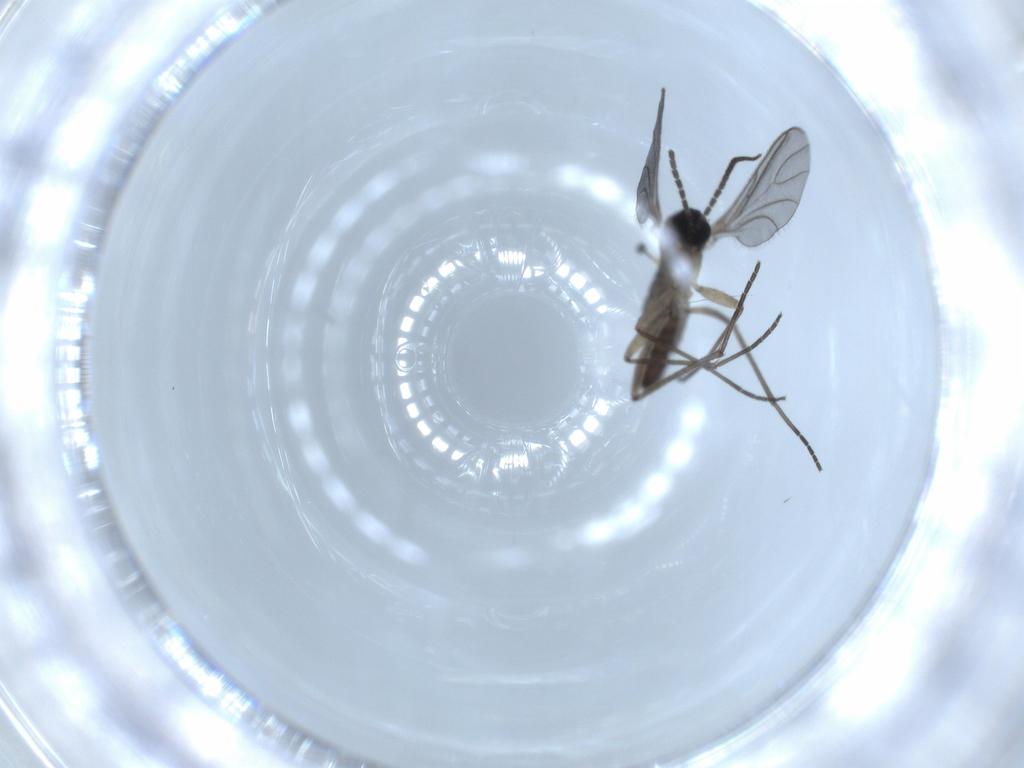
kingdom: Animalia
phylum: Arthropoda
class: Insecta
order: Diptera
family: Sciaridae
